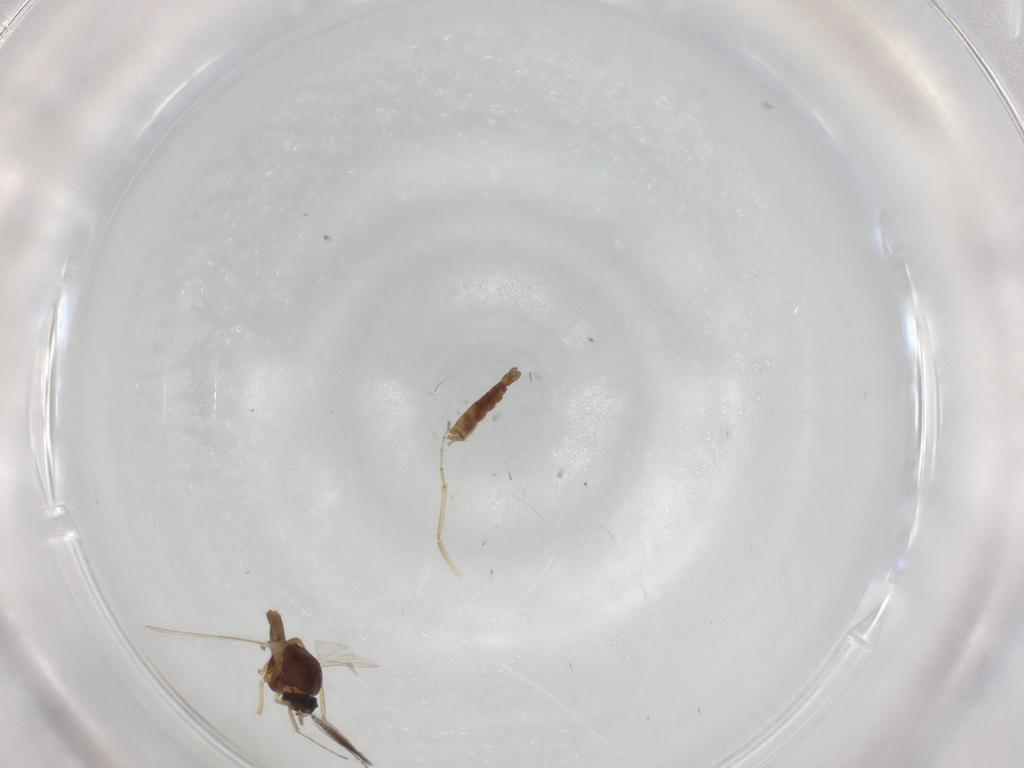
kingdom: Animalia
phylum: Arthropoda
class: Insecta
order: Diptera
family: Ceratopogonidae
